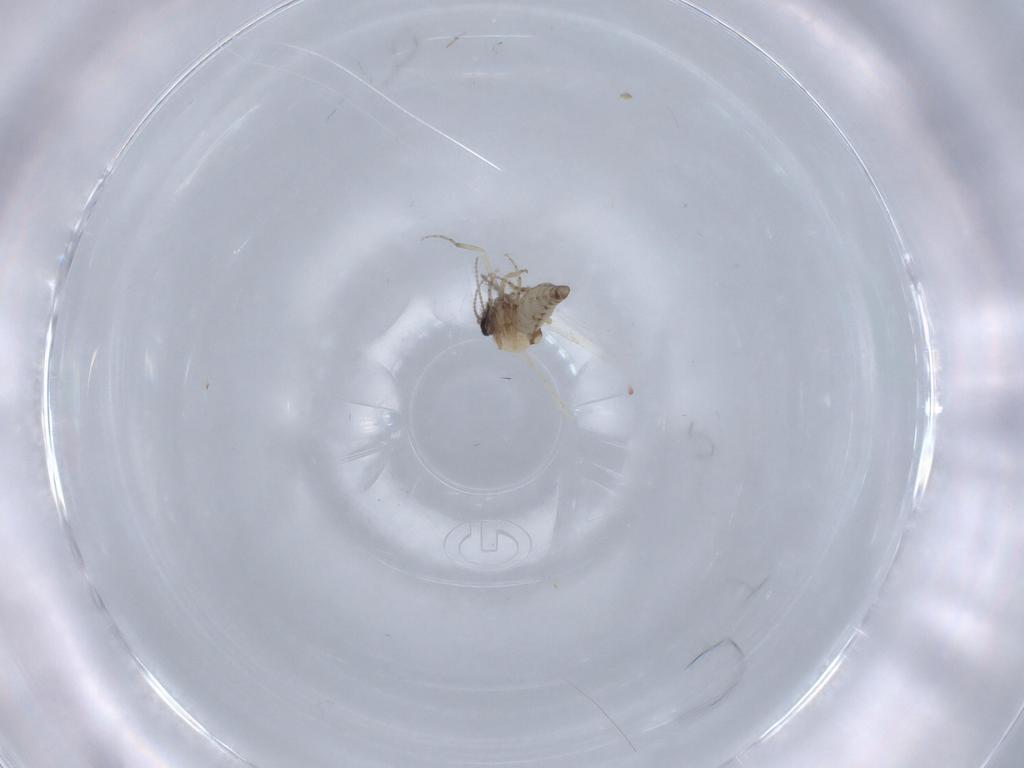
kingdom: Animalia
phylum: Arthropoda
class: Insecta
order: Diptera
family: Ceratopogonidae
